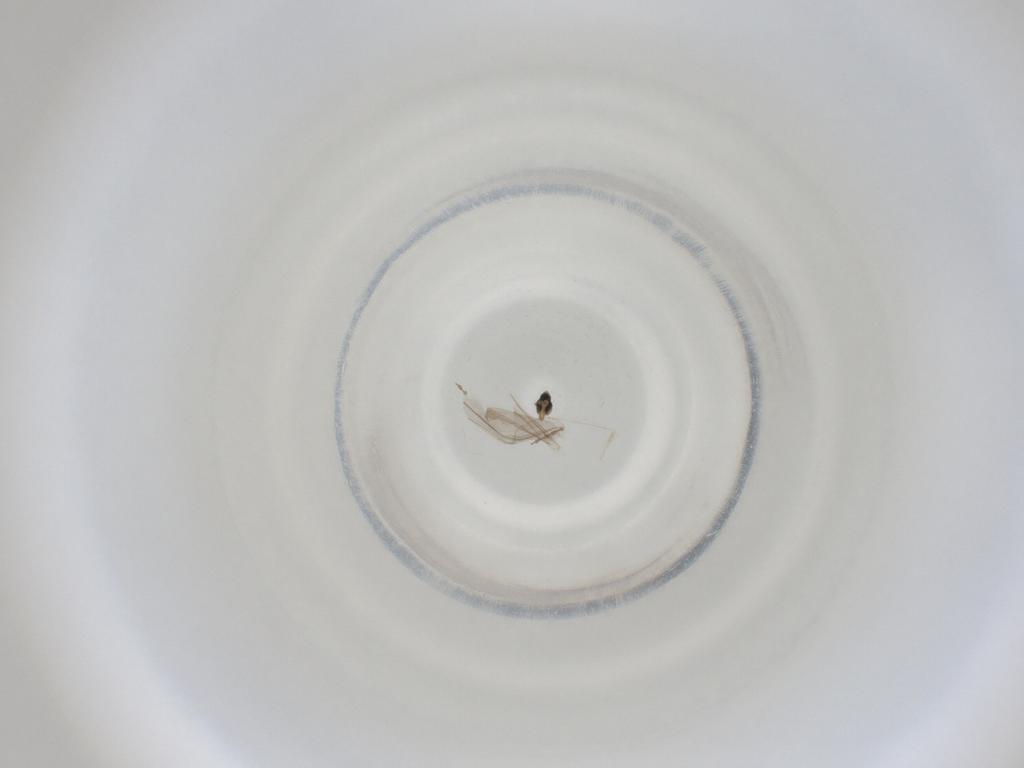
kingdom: Animalia
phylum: Arthropoda
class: Insecta
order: Diptera
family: Cecidomyiidae
